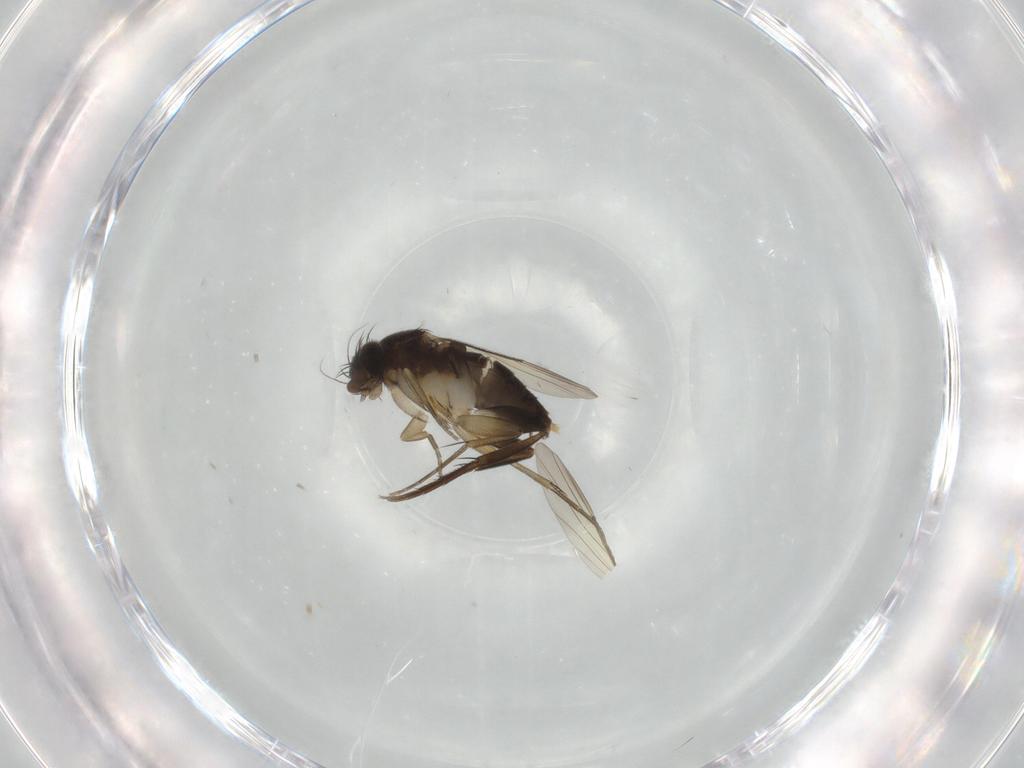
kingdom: Animalia
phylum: Arthropoda
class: Insecta
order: Diptera
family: Phoridae
